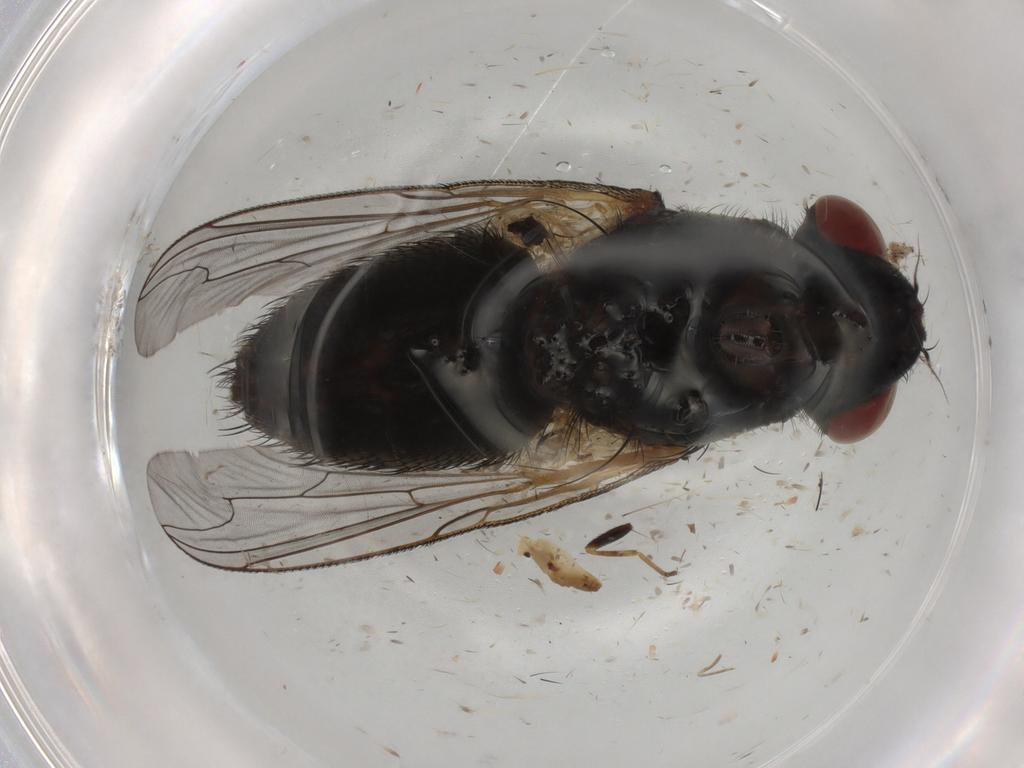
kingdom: Animalia
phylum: Arthropoda
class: Insecta
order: Diptera
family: Sarcophagidae
